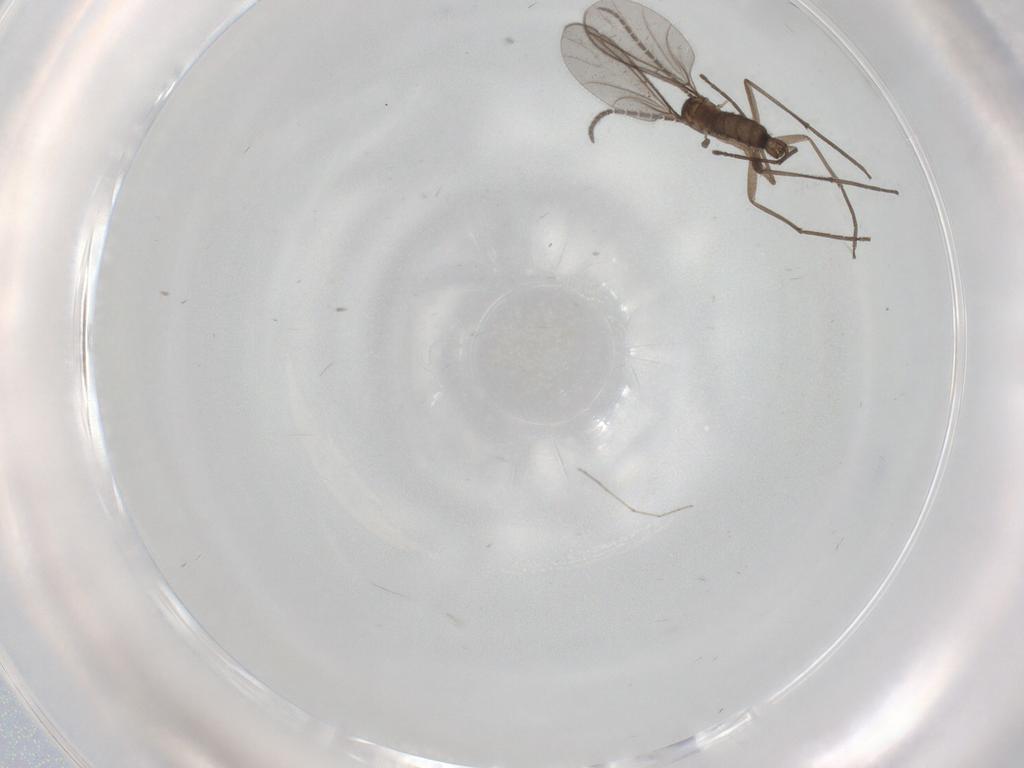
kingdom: Animalia
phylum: Arthropoda
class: Insecta
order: Diptera
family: Sciaridae
